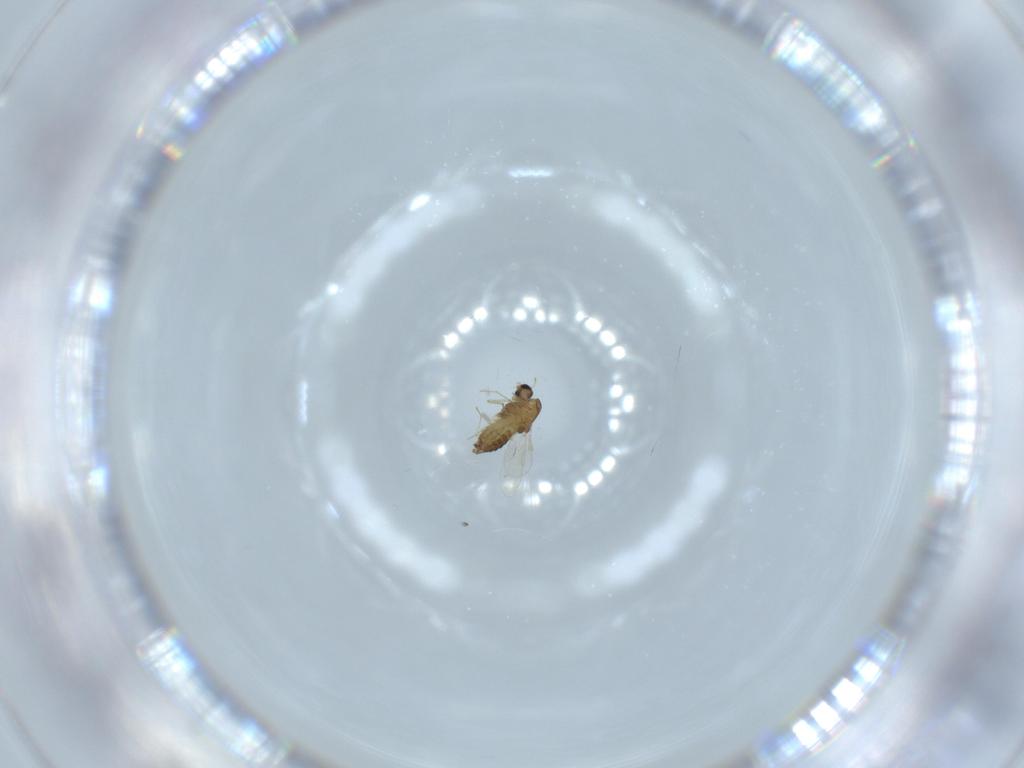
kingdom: Animalia
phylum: Arthropoda
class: Insecta
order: Diptera
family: Chironomidae
